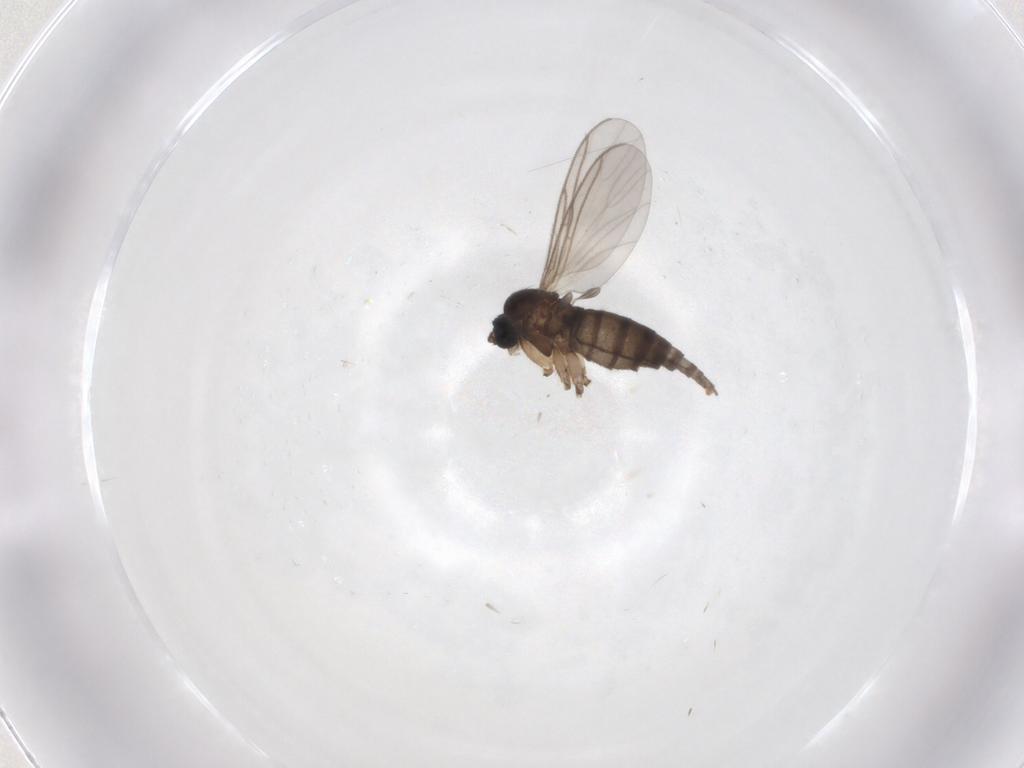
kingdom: Animalia
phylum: Arthropoda
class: Insecta
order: Diptera
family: Sciaridae
